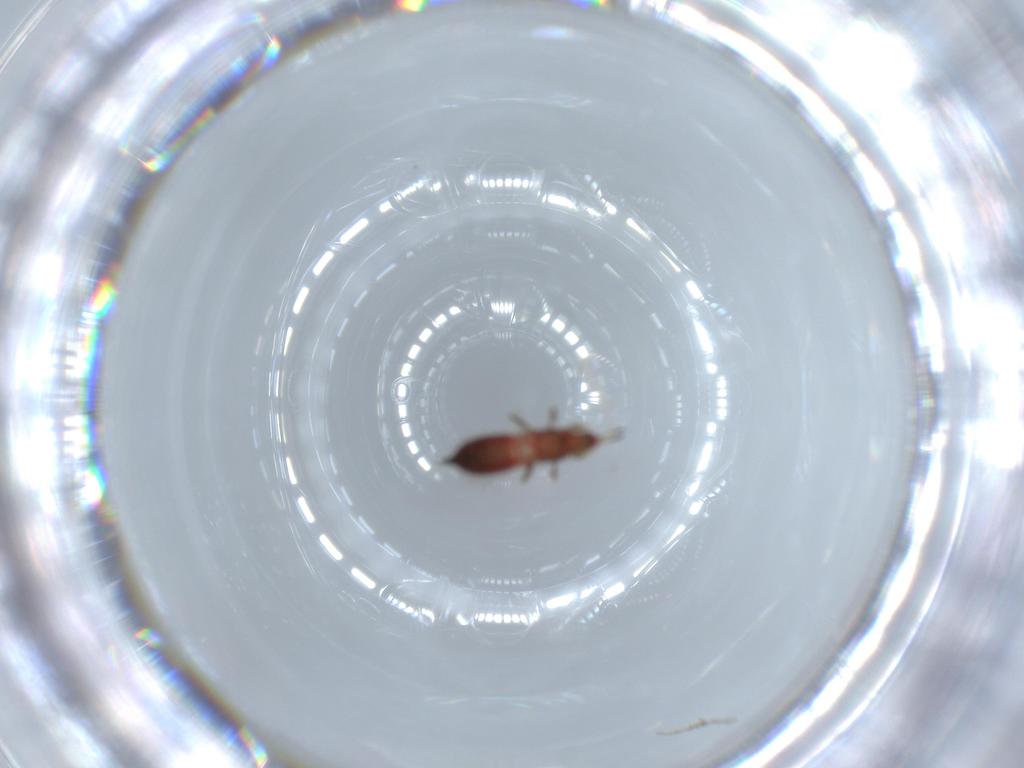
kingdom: Animalia
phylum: Arthropoda
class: Insecta
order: Thysanoptera
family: Phlaeothripidae
